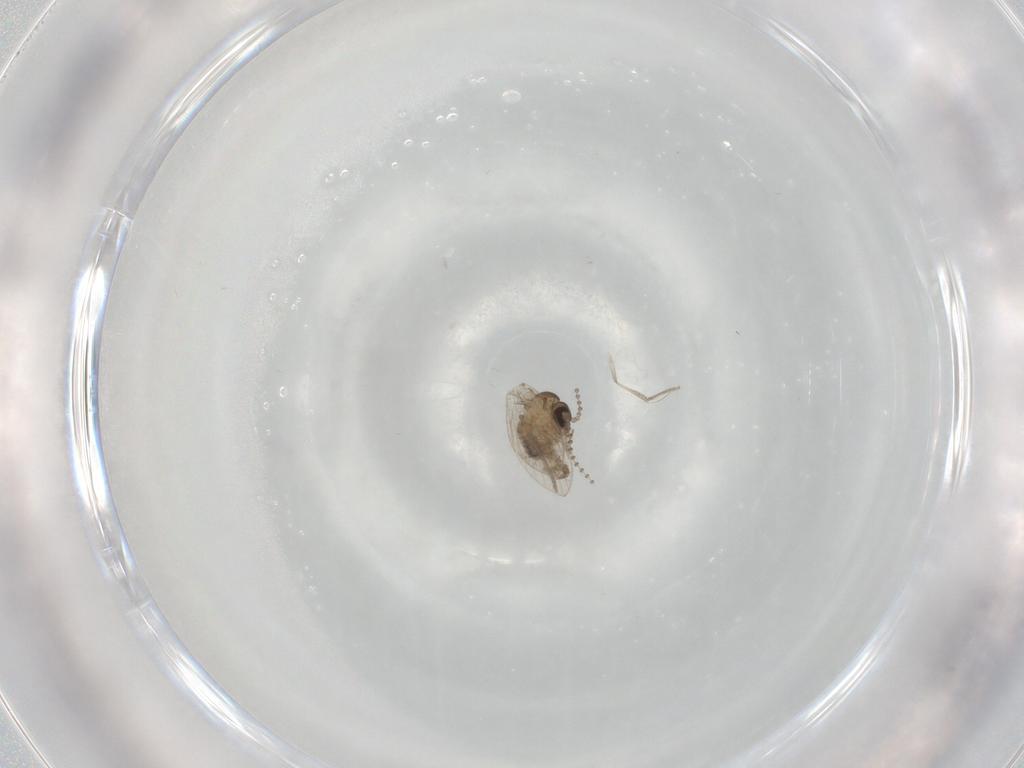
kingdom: Animalia
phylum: Arthropoda
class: Insecta
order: Diptera
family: Psychodidae
